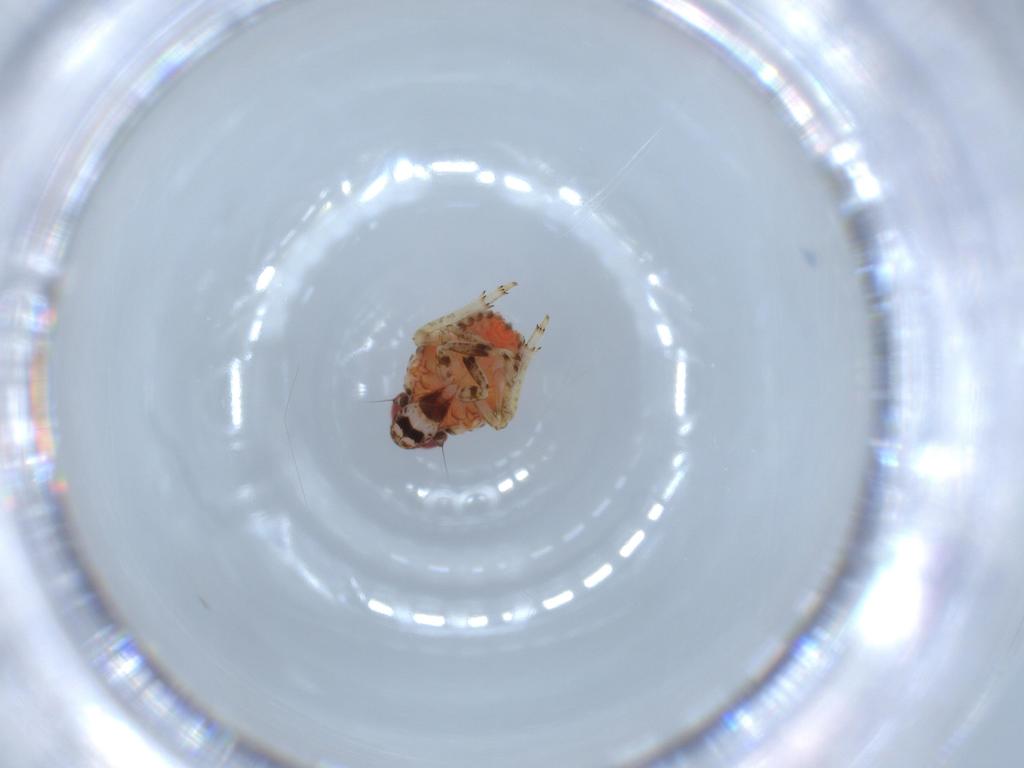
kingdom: Animalia
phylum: Arthropoda
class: Insecta
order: Hemiptera
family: Issidae
